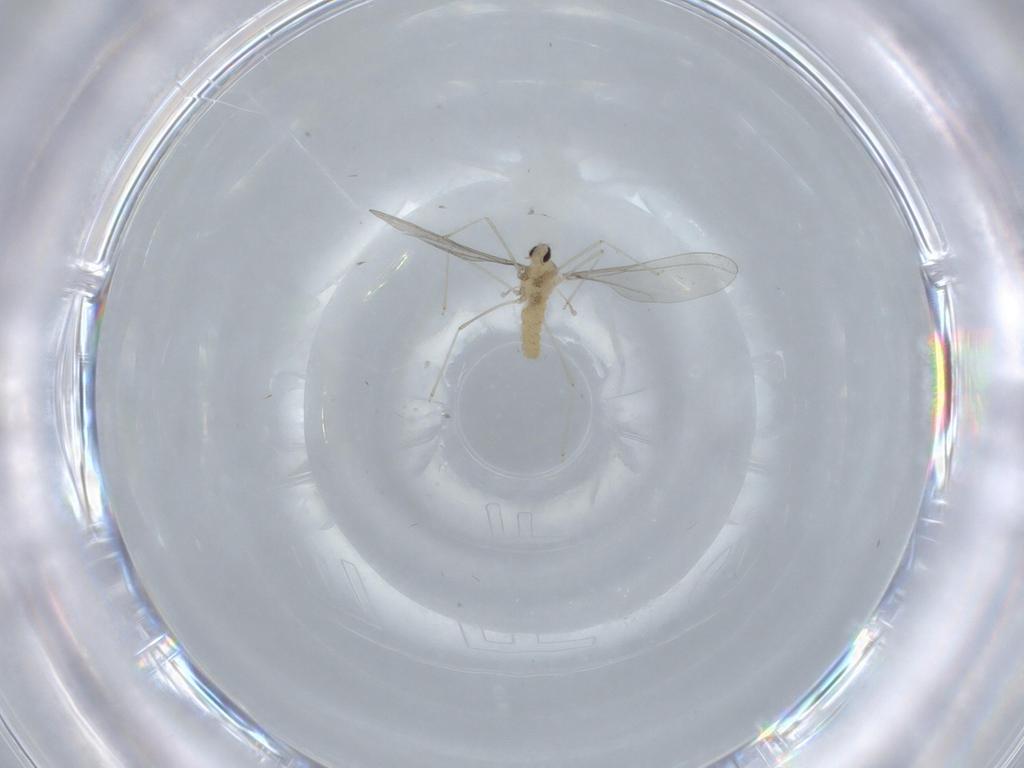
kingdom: Animalia
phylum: Arthropoda
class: Insecta
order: Diptera
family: Cecidomyiidae
